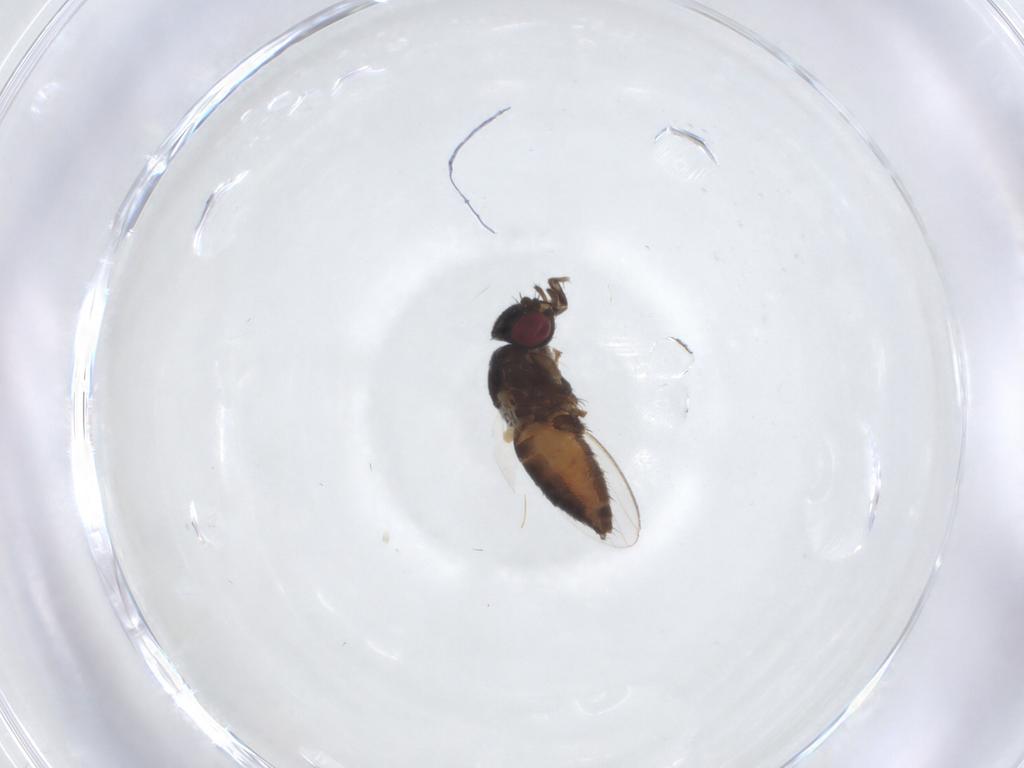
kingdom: Animalia
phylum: Arthropoda
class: Insecta
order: Diptera
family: Milichiidae
